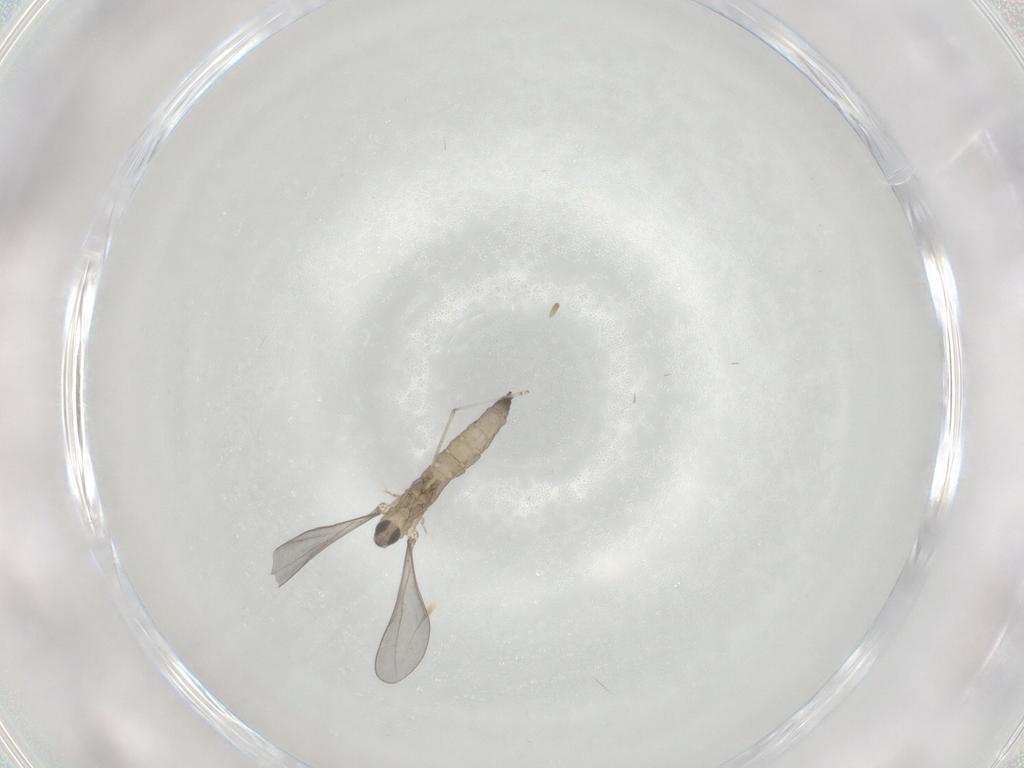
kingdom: Animalia
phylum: Arthropoda
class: Insecta
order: Diptera
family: Cecidomyiidae
